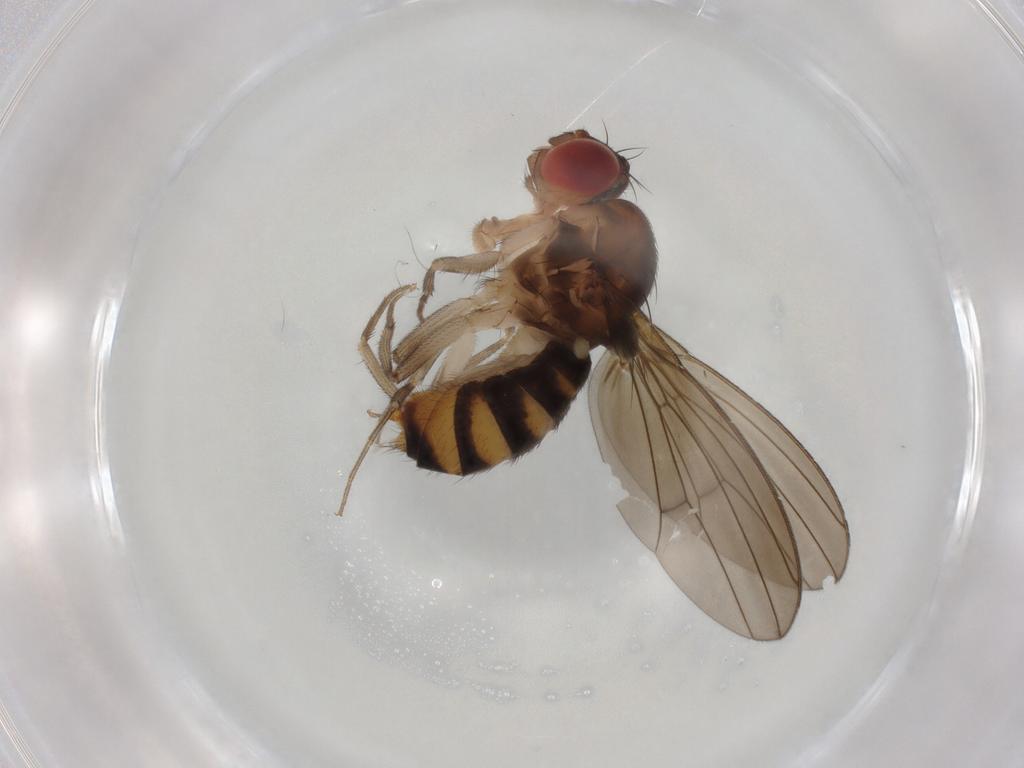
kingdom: Animalia
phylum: Arthropoda
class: Insecta
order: Diptera
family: Drosophilidae
